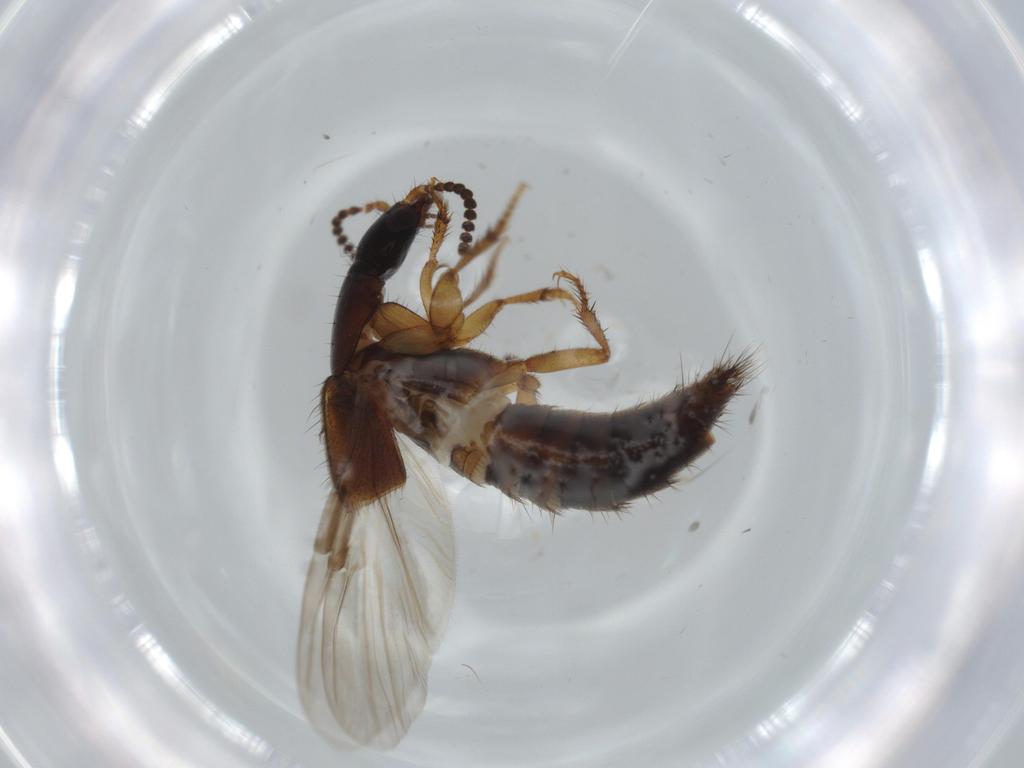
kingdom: Animalia
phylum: Arthropoda
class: Insecta
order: Coleoptera
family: Staphylinidae
